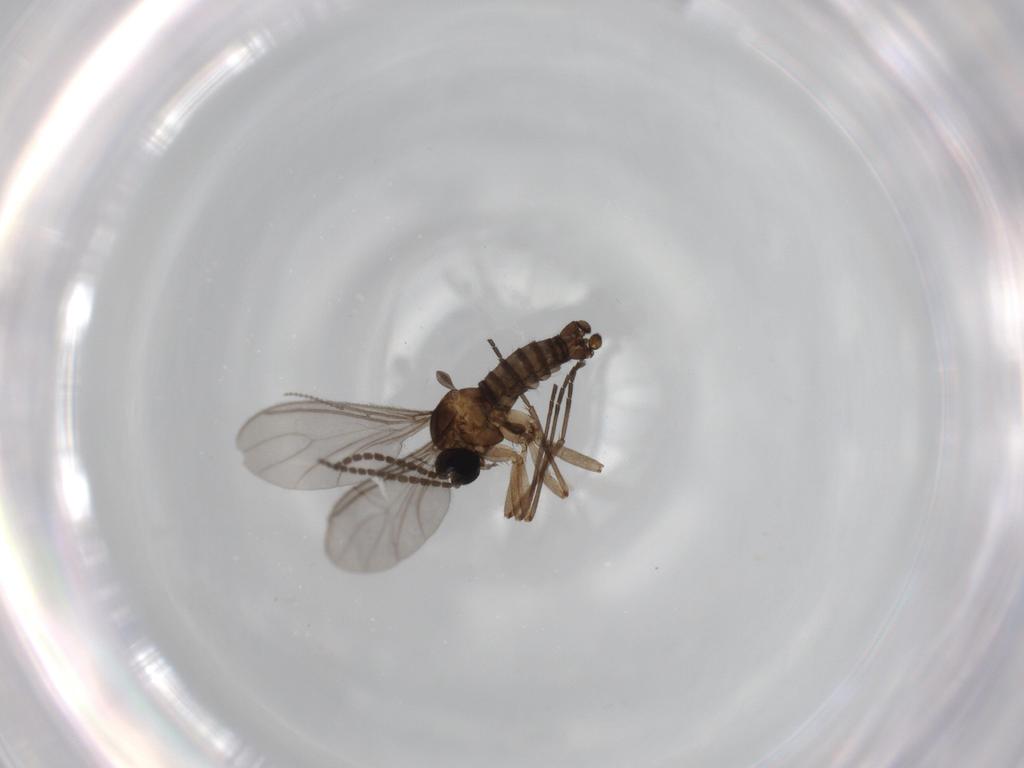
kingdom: Animalia
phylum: Arthropoda
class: Insecta
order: Diptera
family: Sciaridae
